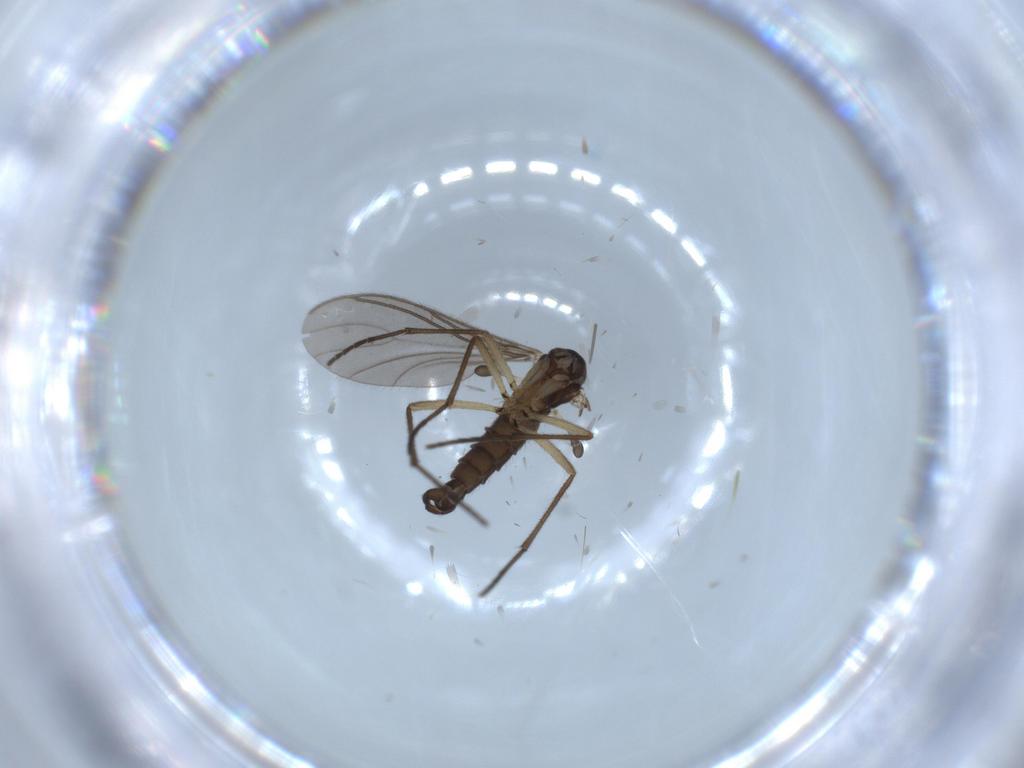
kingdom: Animalia
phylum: Arthropoda
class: Insecta
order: Diptera
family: Sciaridae
